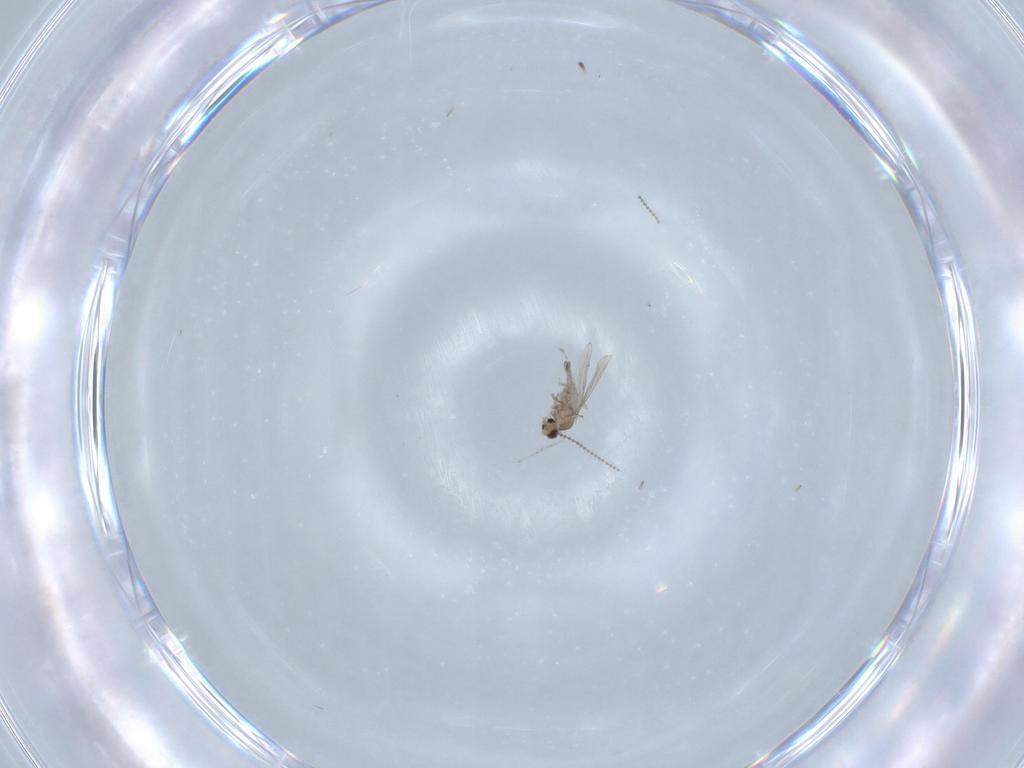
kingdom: Animalia
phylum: Arthropoda
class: Insecta
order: Diptera
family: Cecidomyiidae
